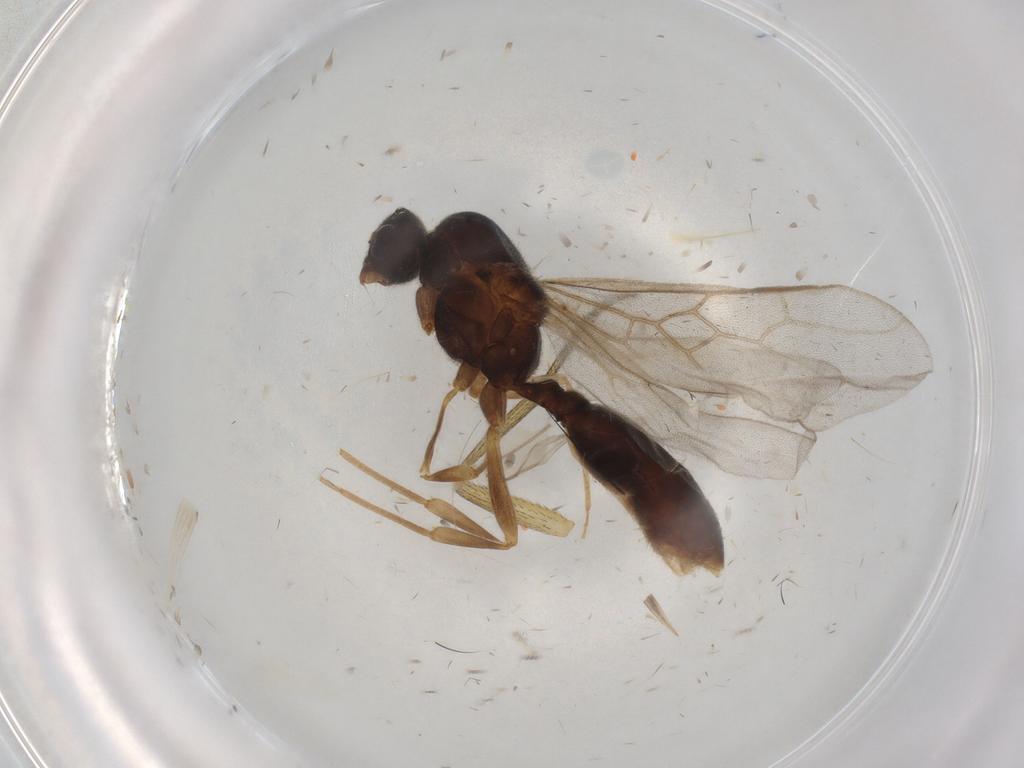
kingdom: Animalia
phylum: Arthropoda
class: Insecta
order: Hymenoptera
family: Formicidae
